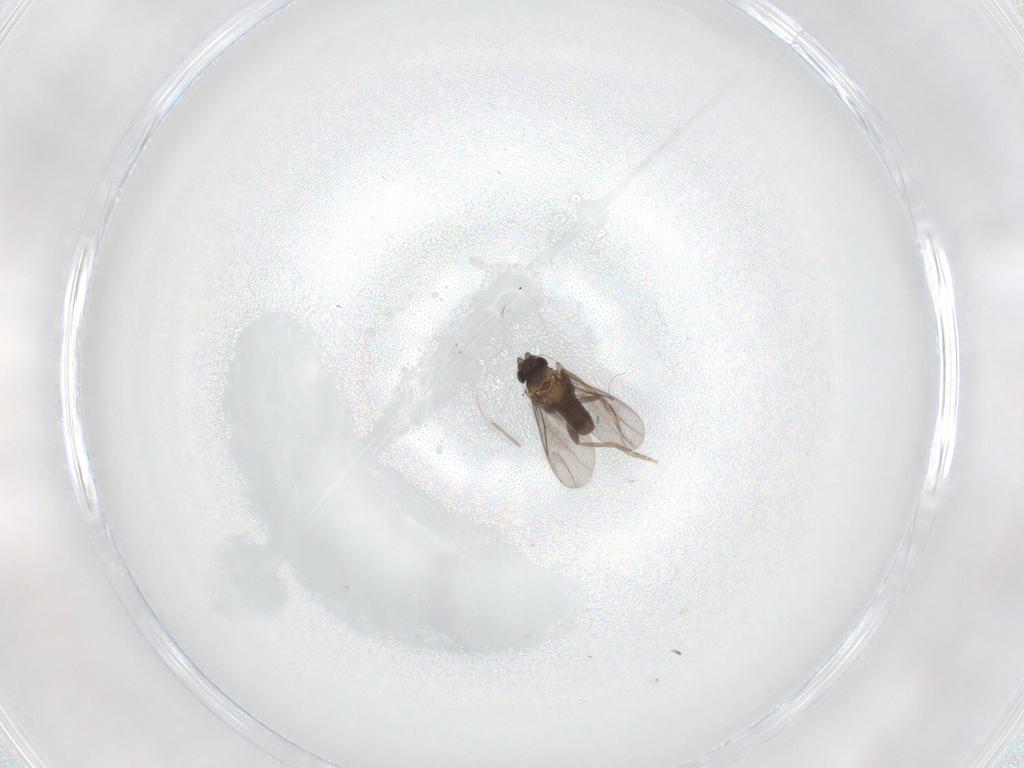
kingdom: Animalia
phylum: Arthropoda
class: Insecta
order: Diptera
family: Cecidomyiidae
